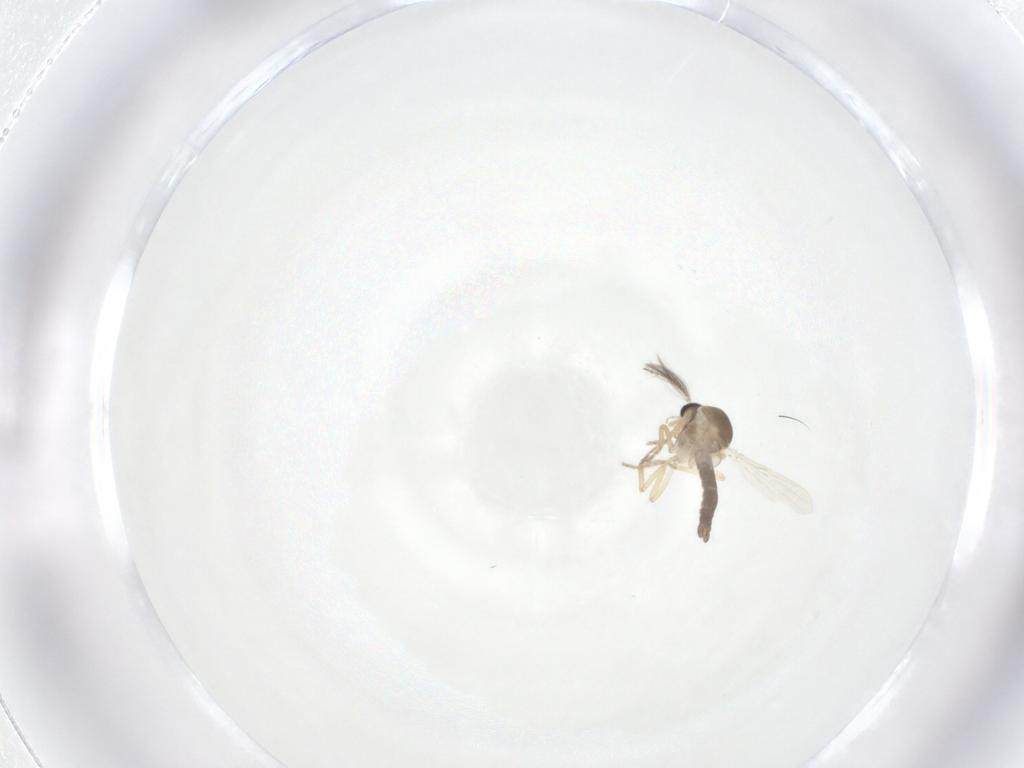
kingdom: Animalia
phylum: Arthropoda
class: Insecta
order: Diptera
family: Ceratopogonidae
